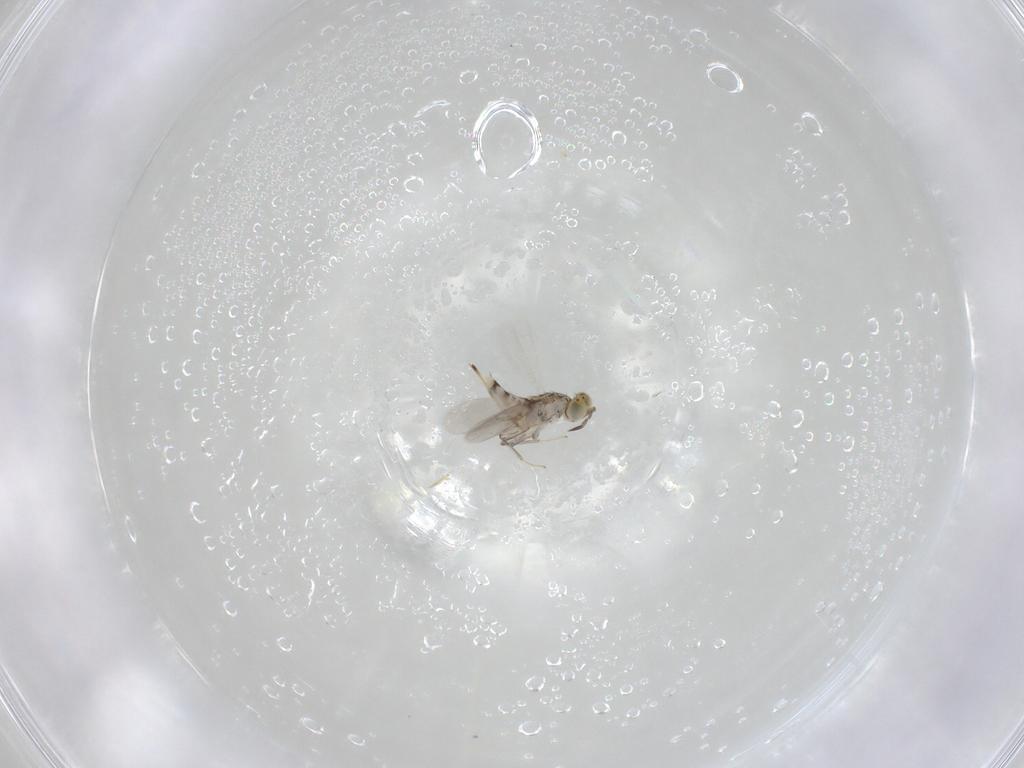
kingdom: Animalia
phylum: Arthropoda
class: Insecta
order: Hymenoptera
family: Aphelinidae
